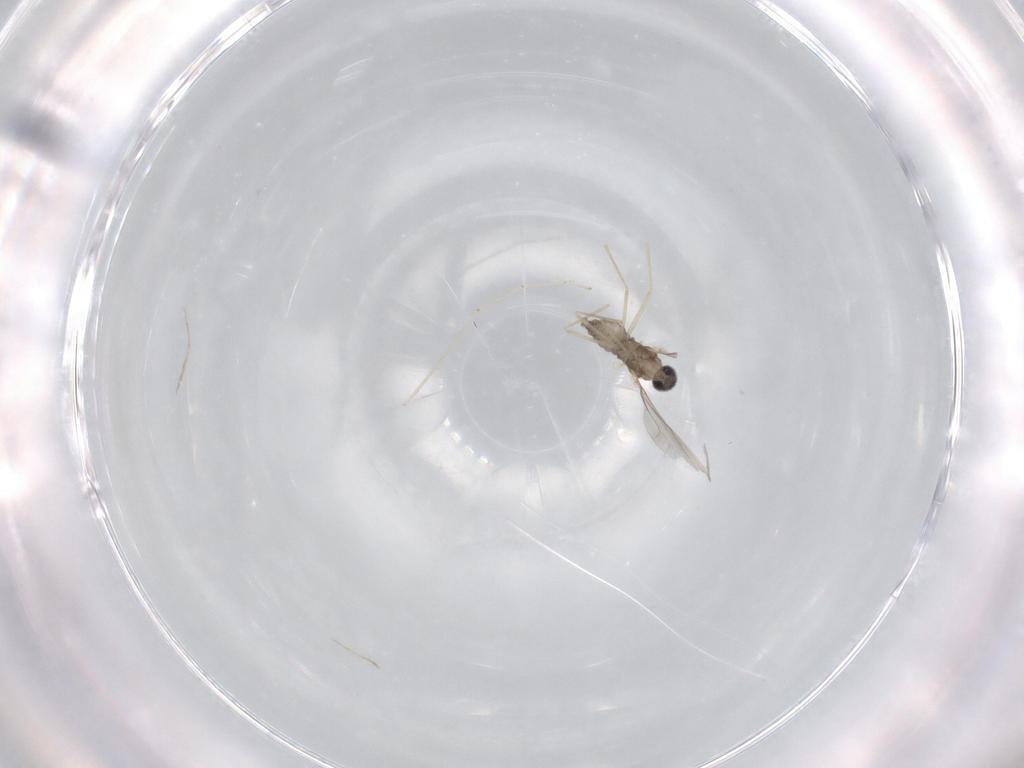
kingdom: Animalia
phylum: Arthropoda
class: Insecta
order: Diptera
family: Cecidomyiidae
